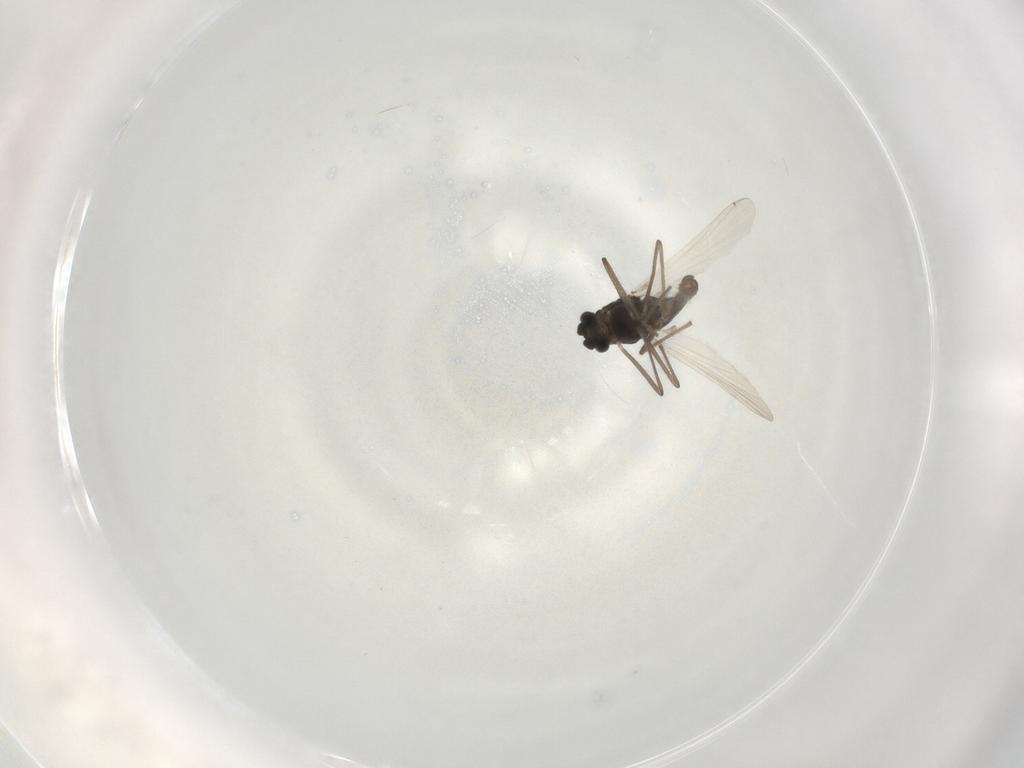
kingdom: Animalia
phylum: Arthropoda
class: Insecta
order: Diptera
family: Chironomidae
